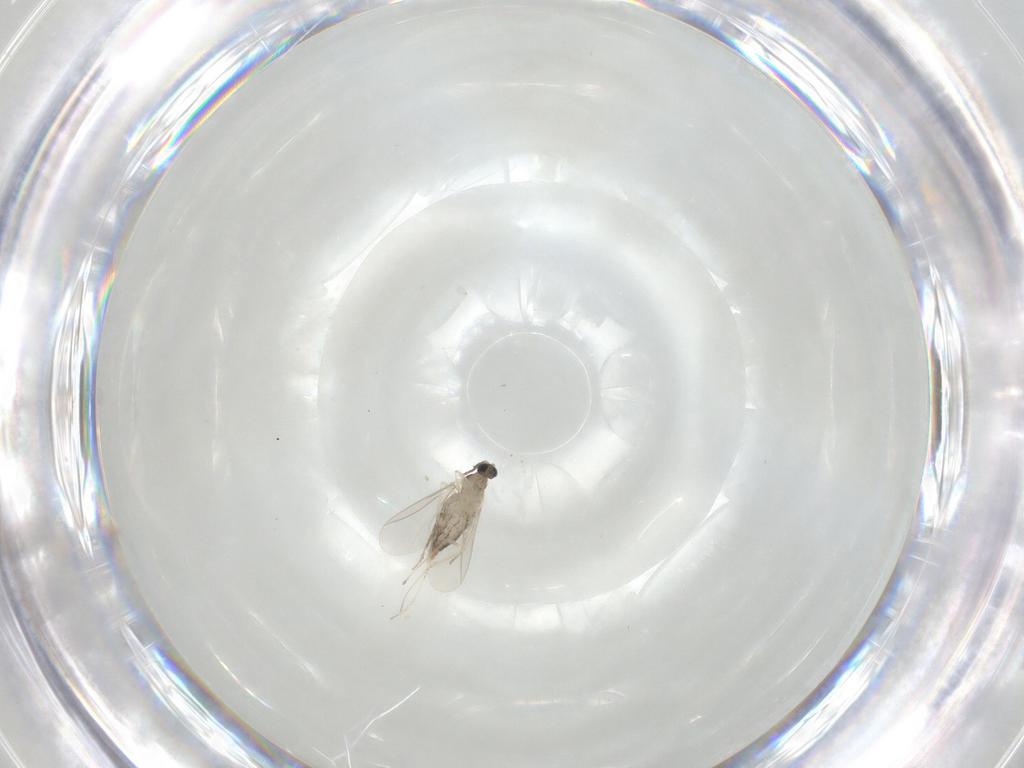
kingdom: Animalia
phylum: Arthropoda
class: Insecta
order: Diptera
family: Cecidomyiidae
